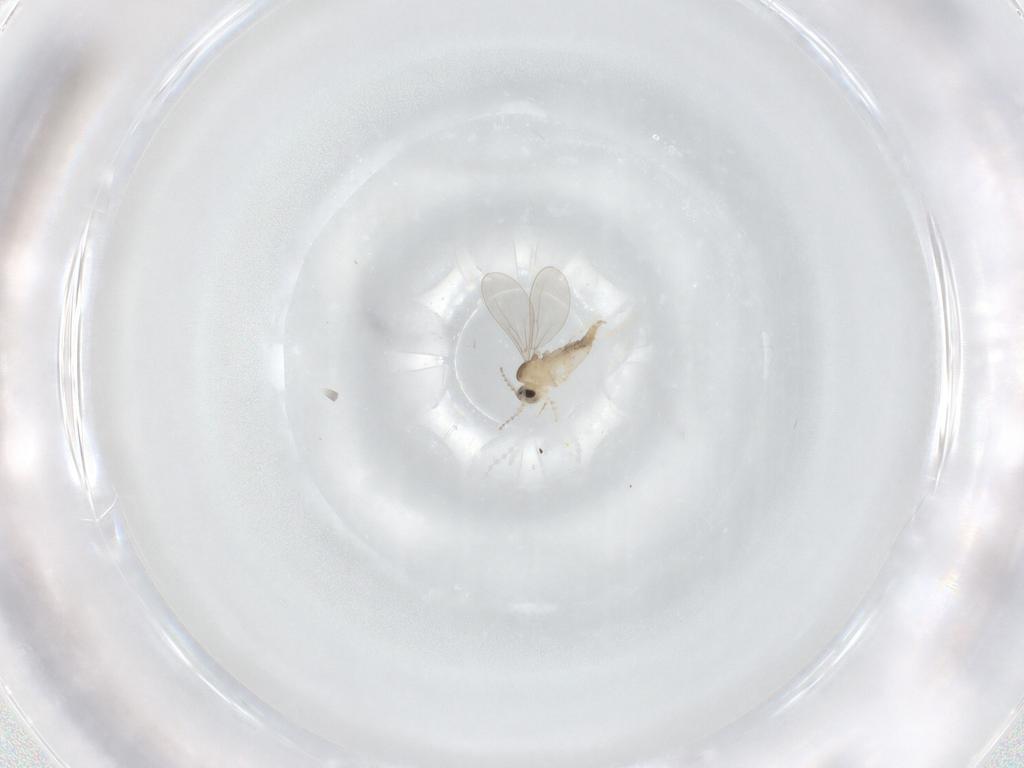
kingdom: Animalia
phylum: Arthropoda
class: Insecta
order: Diptera
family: Cecidomyiidae
